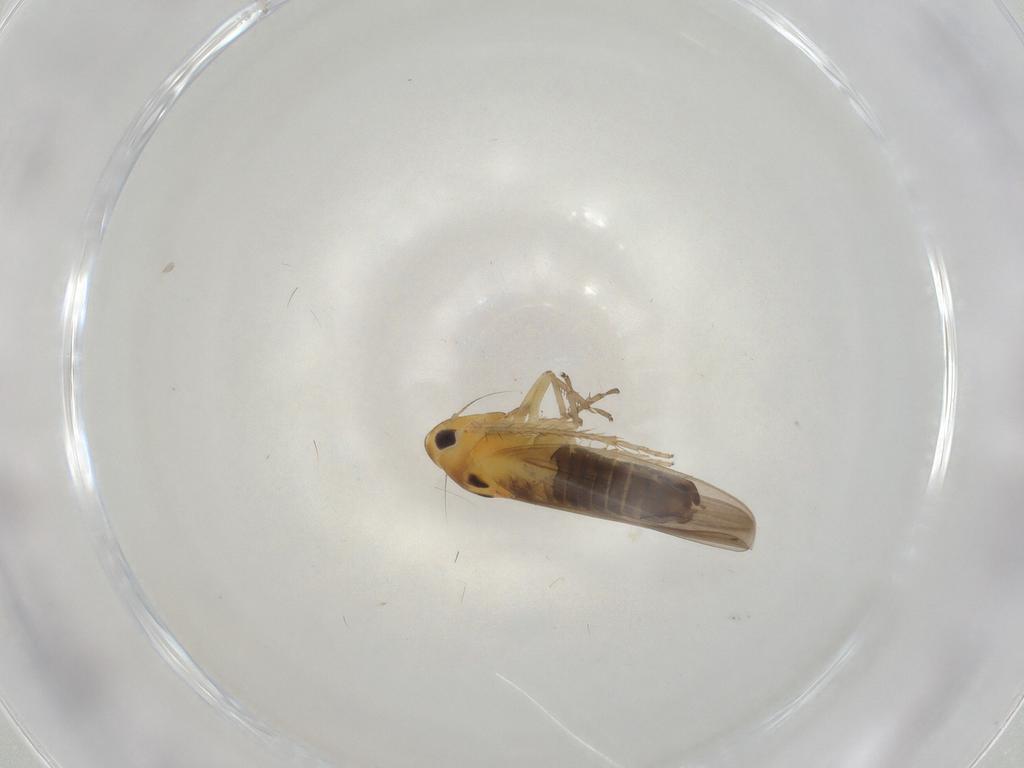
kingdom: Animalia
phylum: Arthropoda
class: Insecta
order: Hemiptera
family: Cicadellidae
